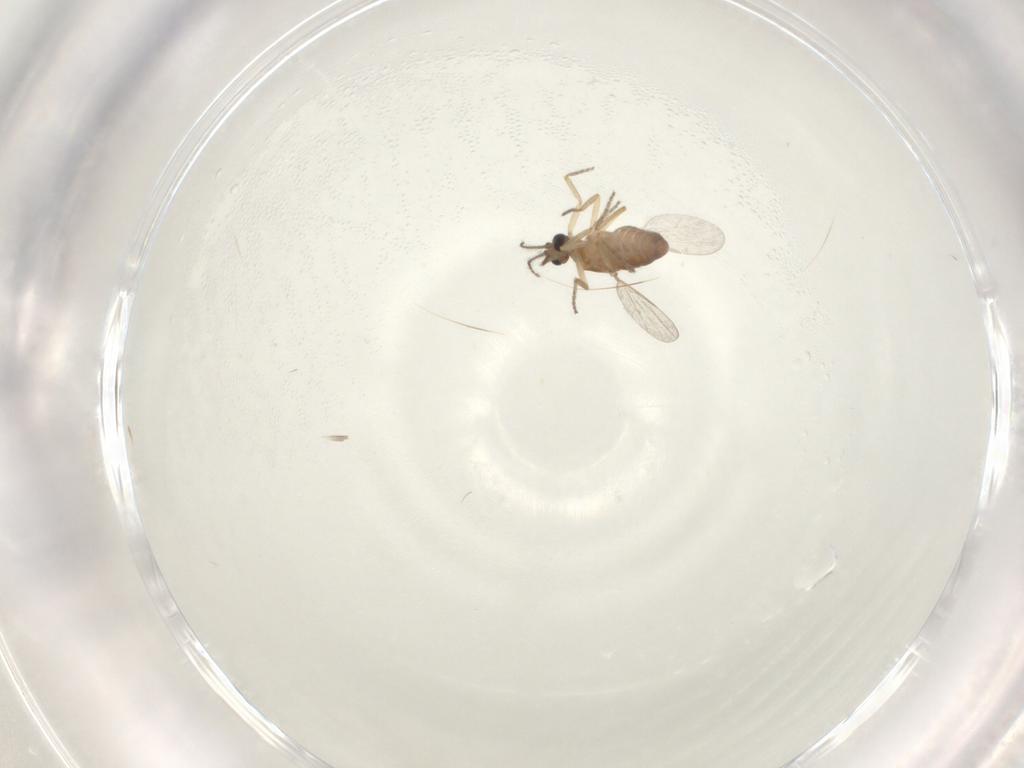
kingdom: Animalia
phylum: Arthropoda
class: Insecta
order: Diptera
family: Ceratopogonidae
